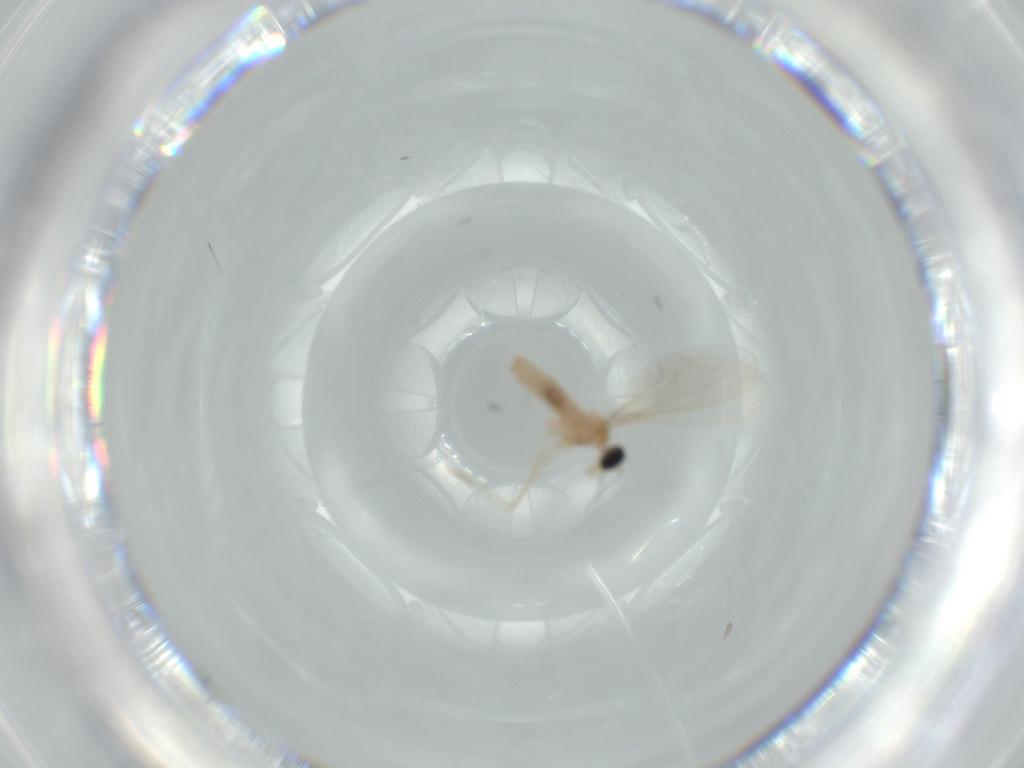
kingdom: Animalia
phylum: Arthropoda
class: Insecta
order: Diptera
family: Cecidomyiidae
